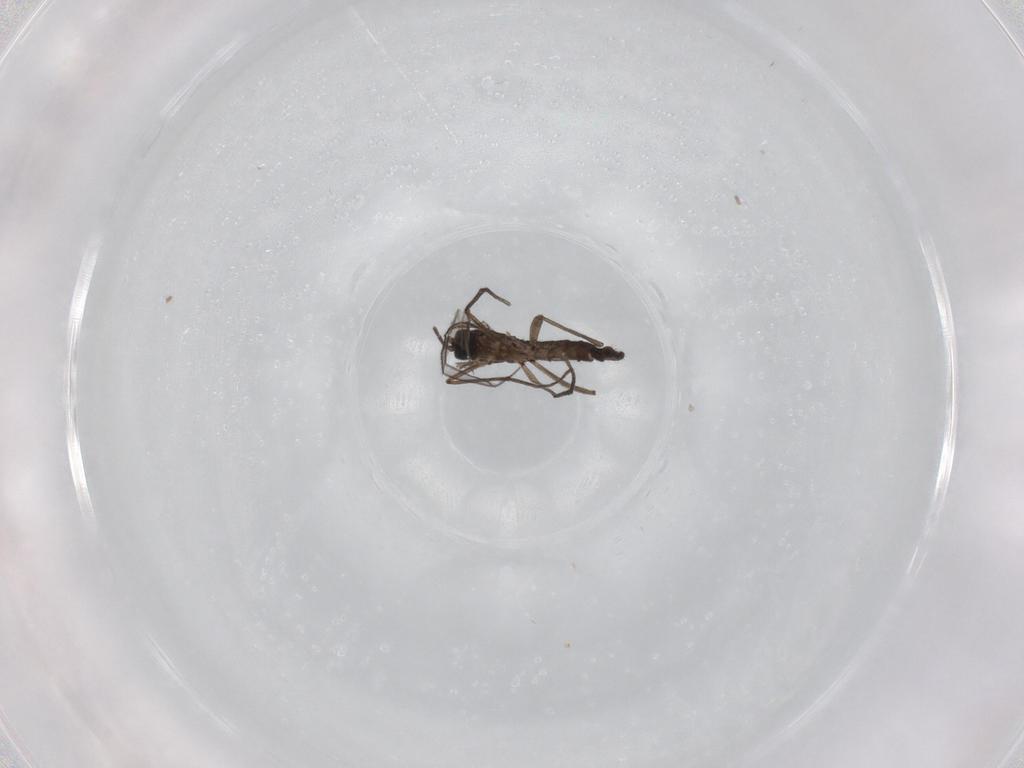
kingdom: Animalia
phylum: Arthropoda
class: Insecta
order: Diptera
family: Sciaridae
